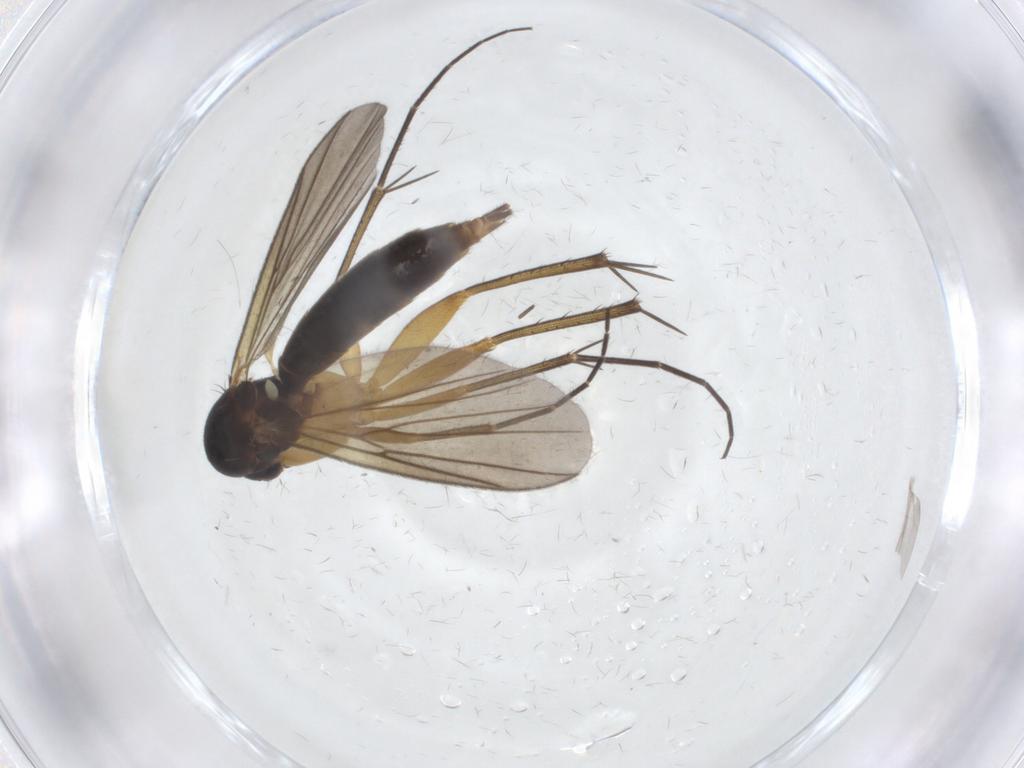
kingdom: Animalia
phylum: Arthropoda
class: Insecta
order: Diptera
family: Mycetophilidae
